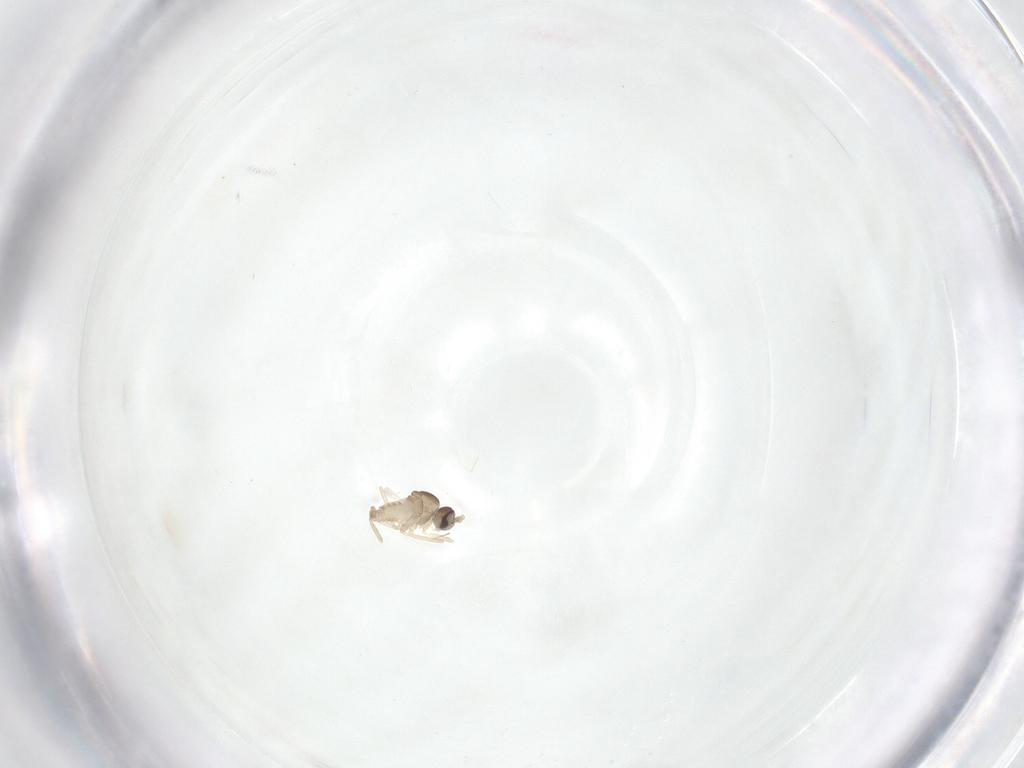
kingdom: Animalia
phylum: Arthropoda
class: Insecta
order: Diptera
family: Cecidomyiidae
